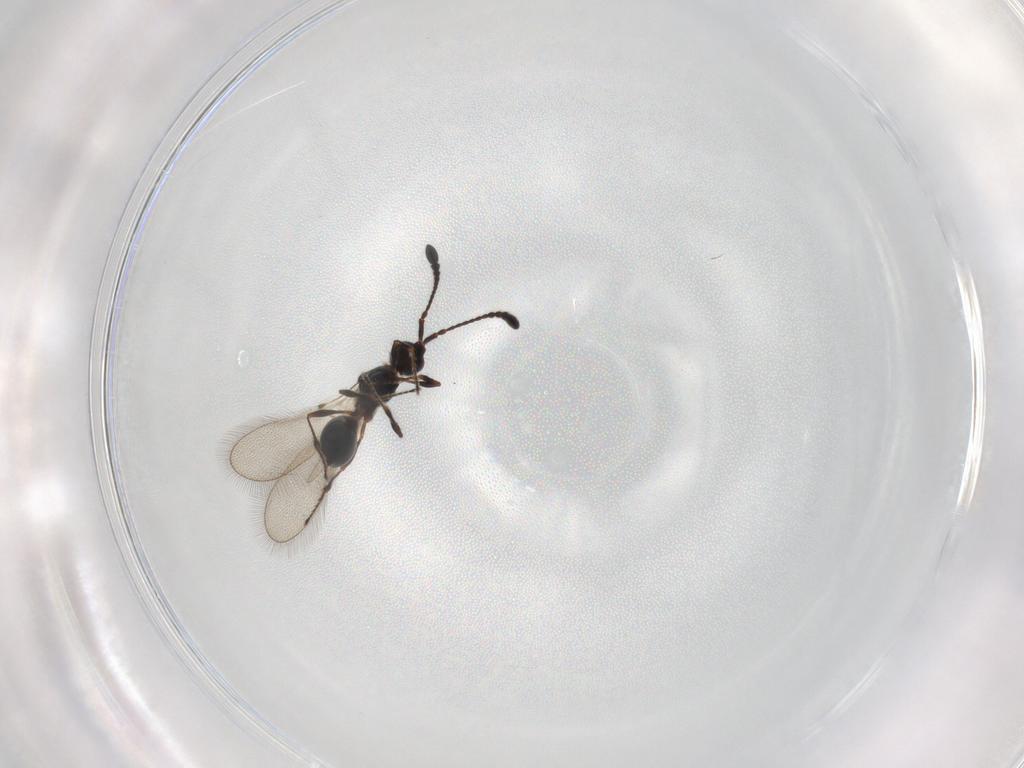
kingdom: Animalia
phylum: Arthropoda
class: Insecta
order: Hymenoptera
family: Diapriidae
